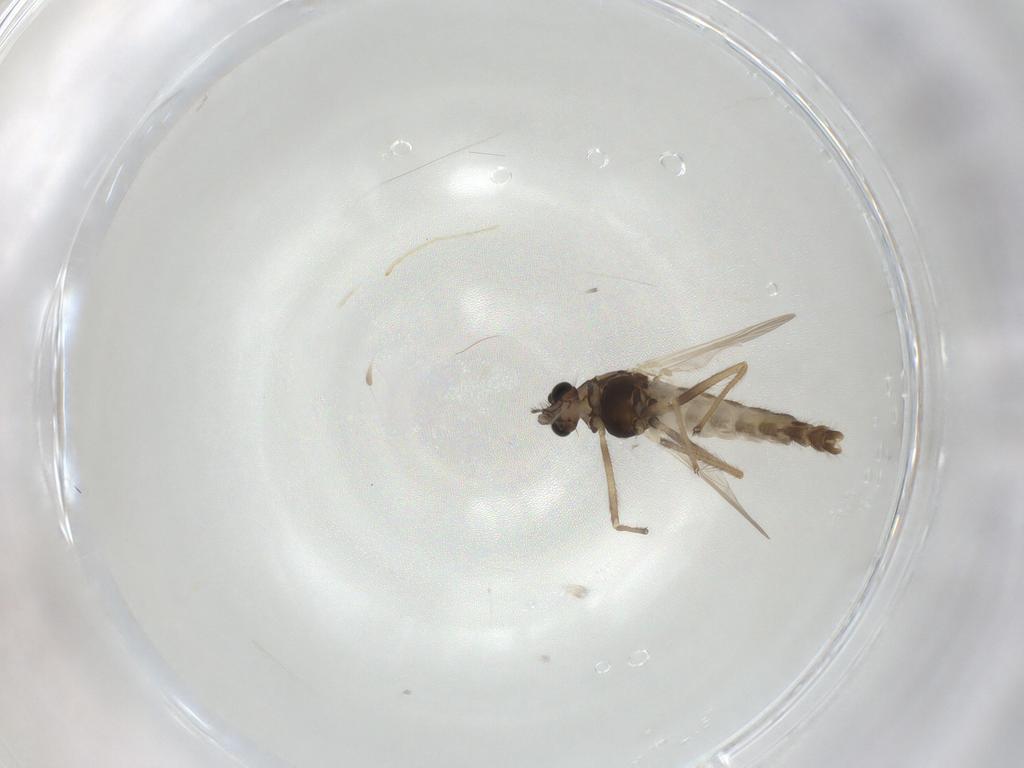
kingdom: Animalia
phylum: Arthropoda
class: Insecta
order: Diptera
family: Chironomidae
